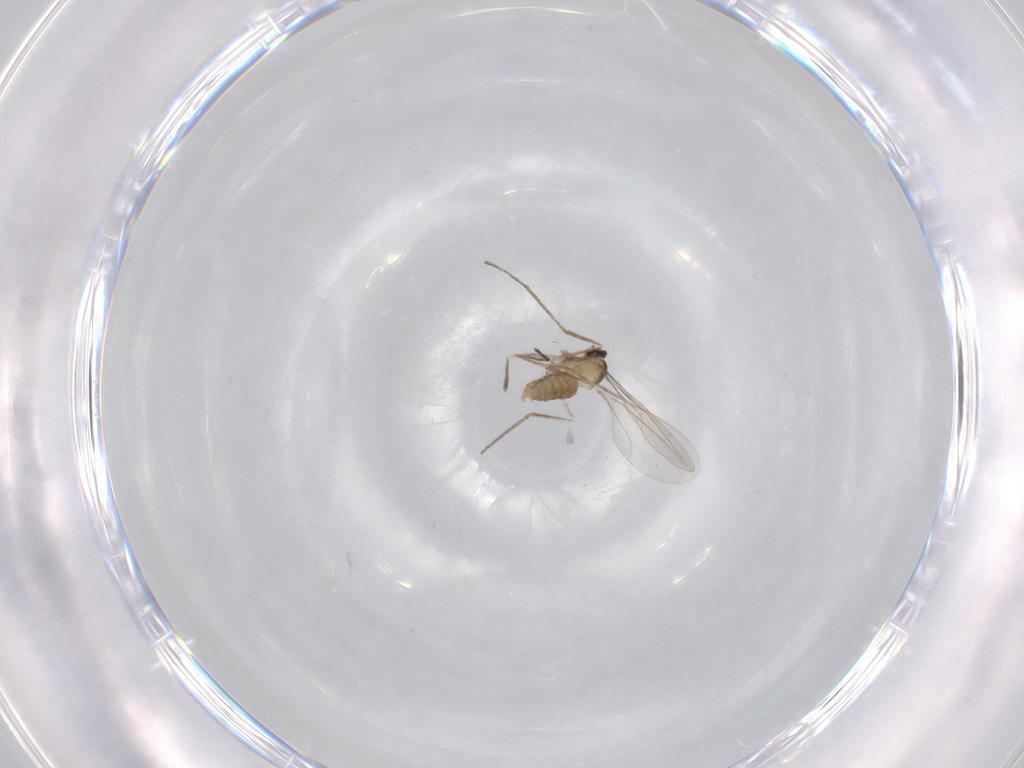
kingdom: Animalia
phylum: Arthropoda
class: Insecta
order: Diptera
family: Cecidomyiidae
